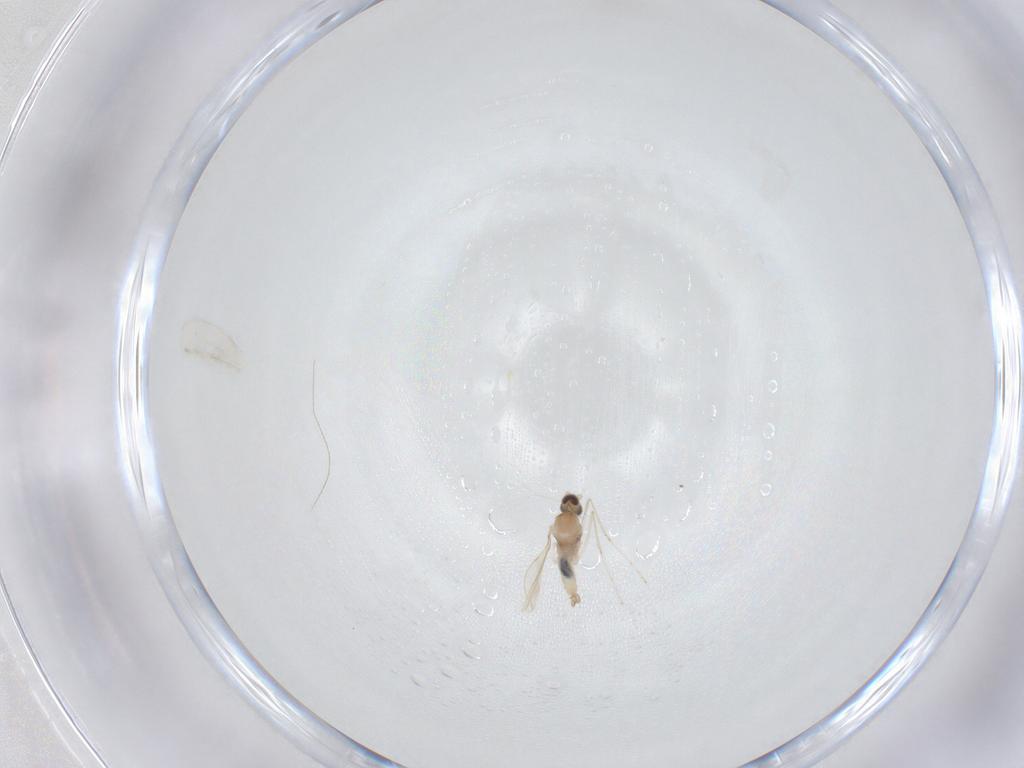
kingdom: Animalia
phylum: Arthropoda
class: Insecta
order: Diptera
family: Cecidomyiidae
